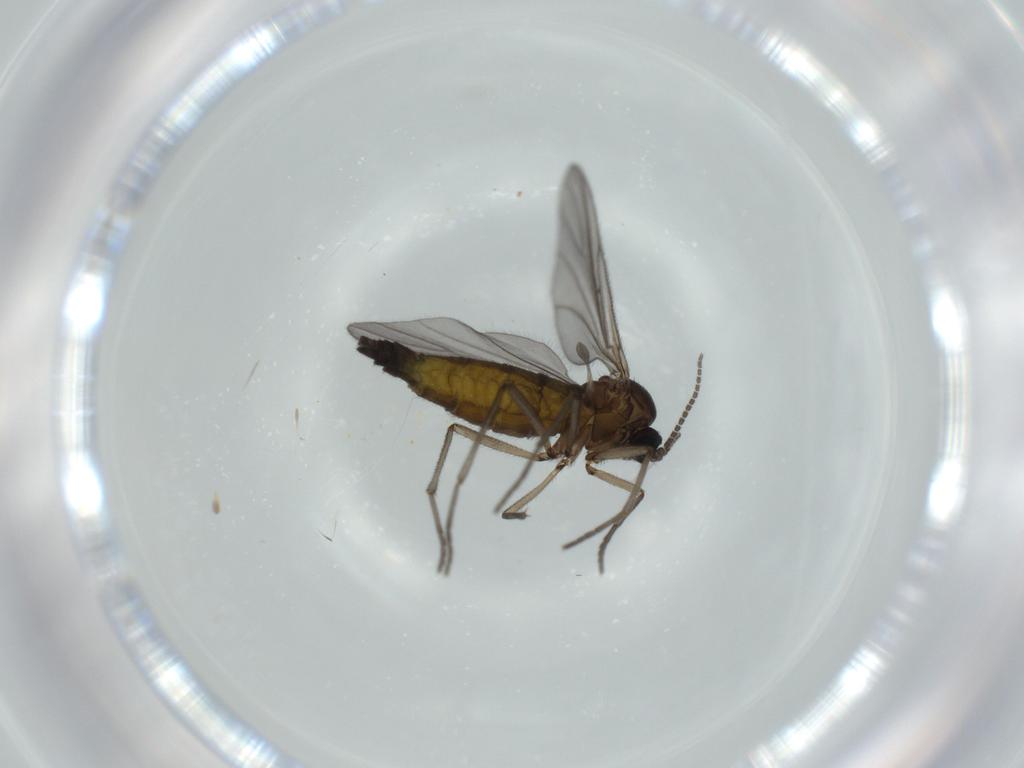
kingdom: Animalia
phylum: Arthropoda
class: Insecta
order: Diptera
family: Sciaridae
